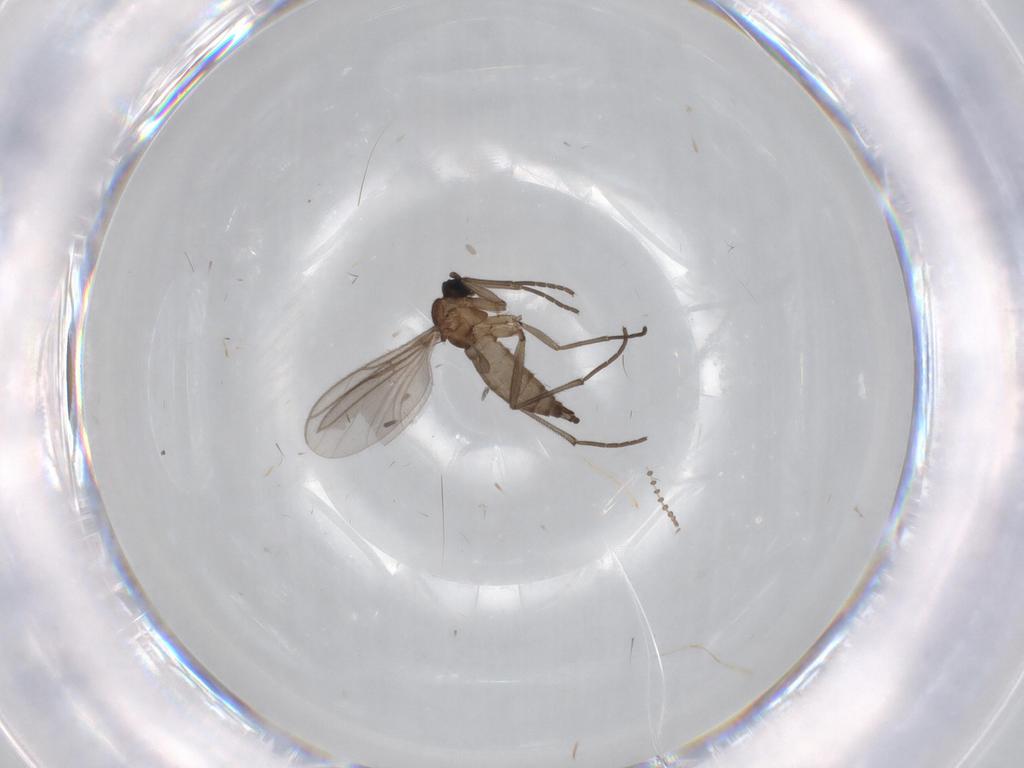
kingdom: Animalia
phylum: Arthropoda
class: Insecta
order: Diptera
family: Psychodidae
